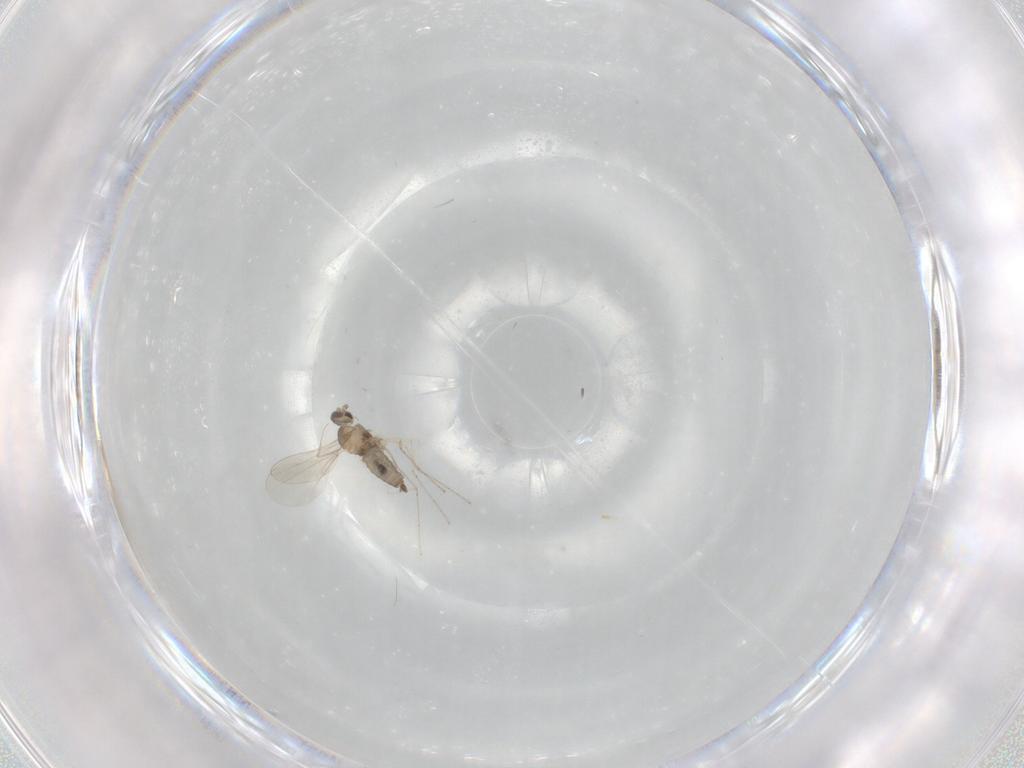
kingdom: Animalia
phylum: Arthropoda
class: Insecta
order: Diptera
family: Cecidomyiidae
